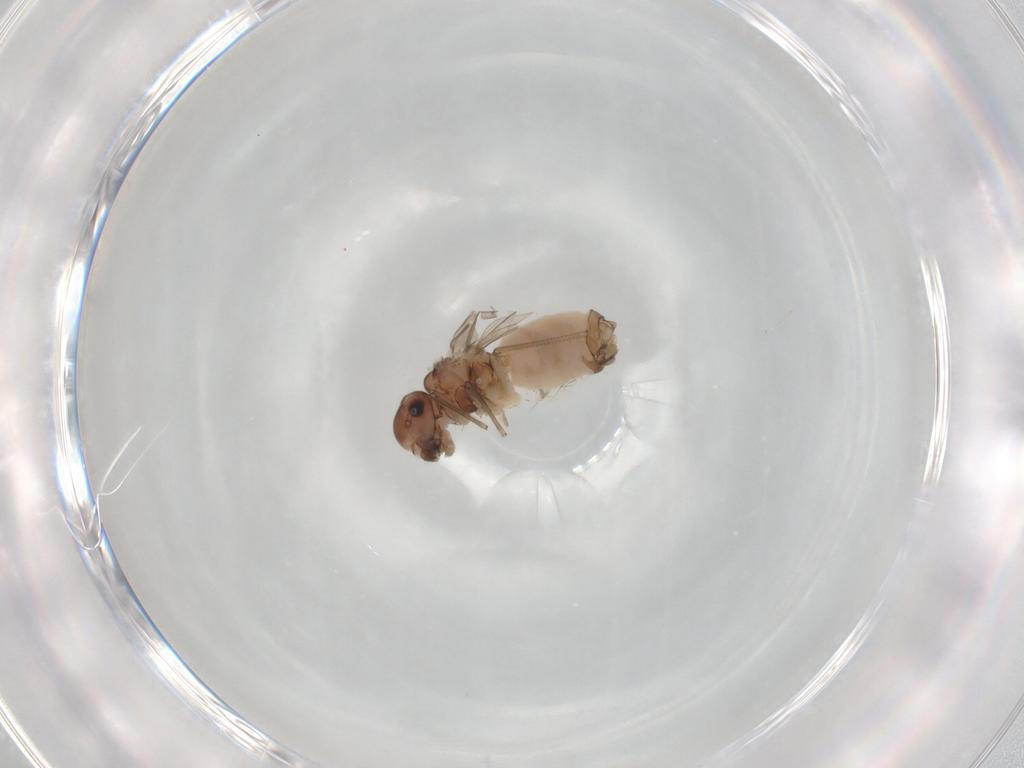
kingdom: Animalia
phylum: Arthropoda
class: Insecta
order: Psocodea
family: Peripsocidae
